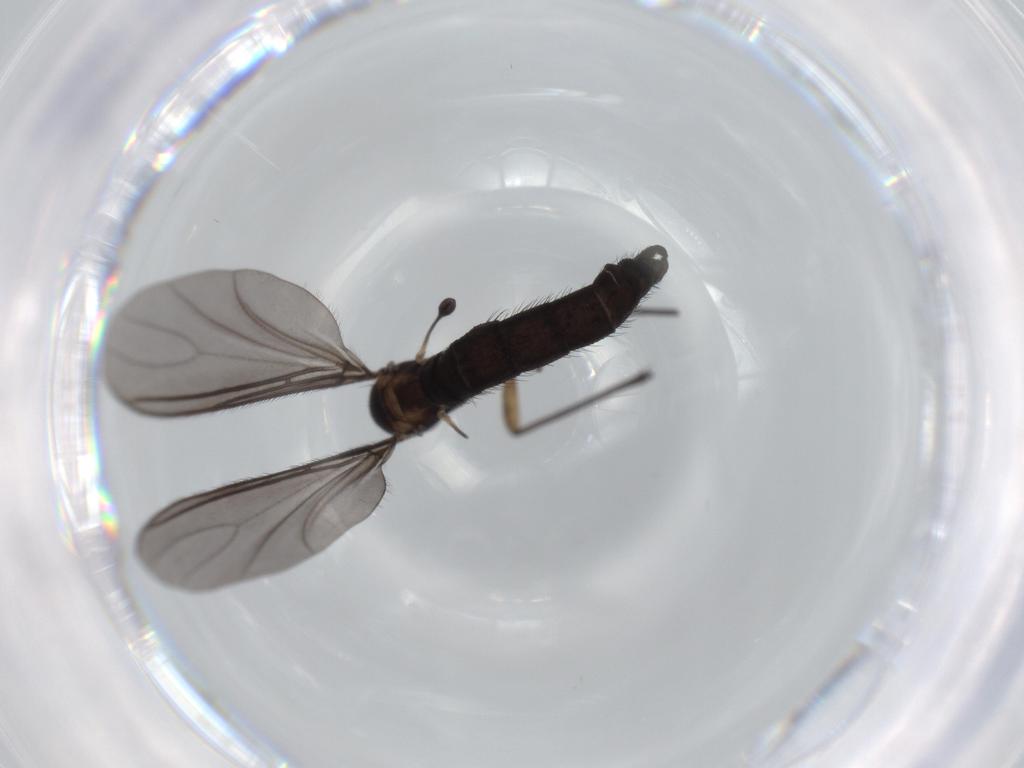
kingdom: Animalia
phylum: Arthropoda
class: Insecta
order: Diptera
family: Sciaridae
